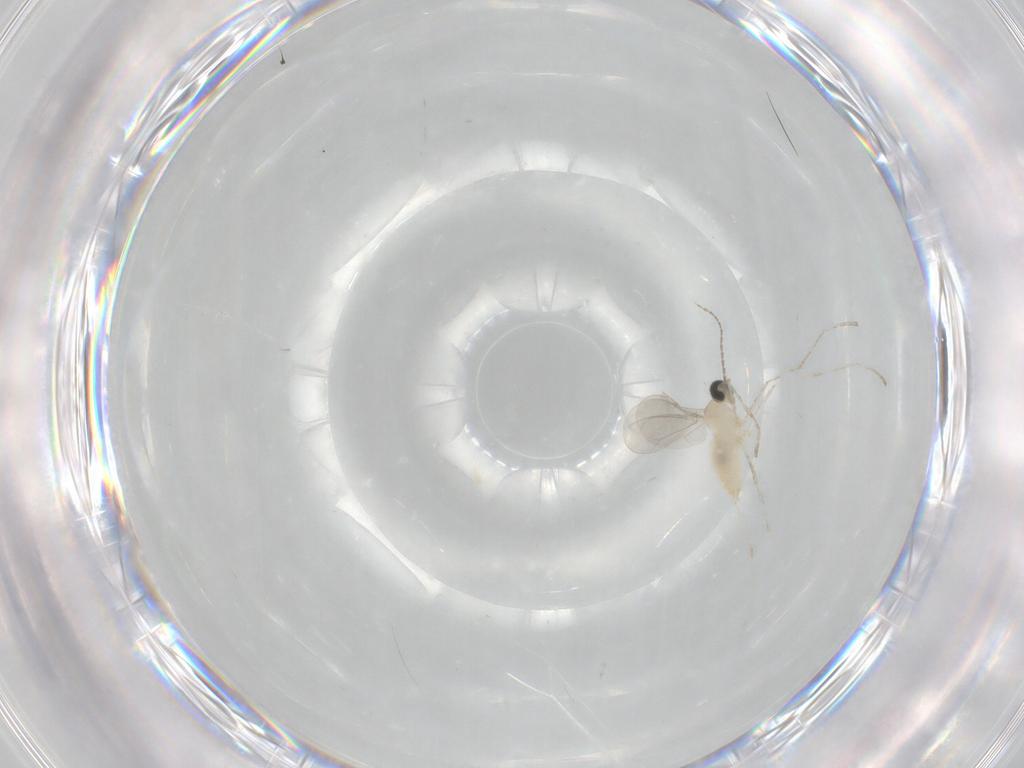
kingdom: Animalia
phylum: Arthropoda
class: Insecta
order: Diptera
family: Cecidomyiidae
